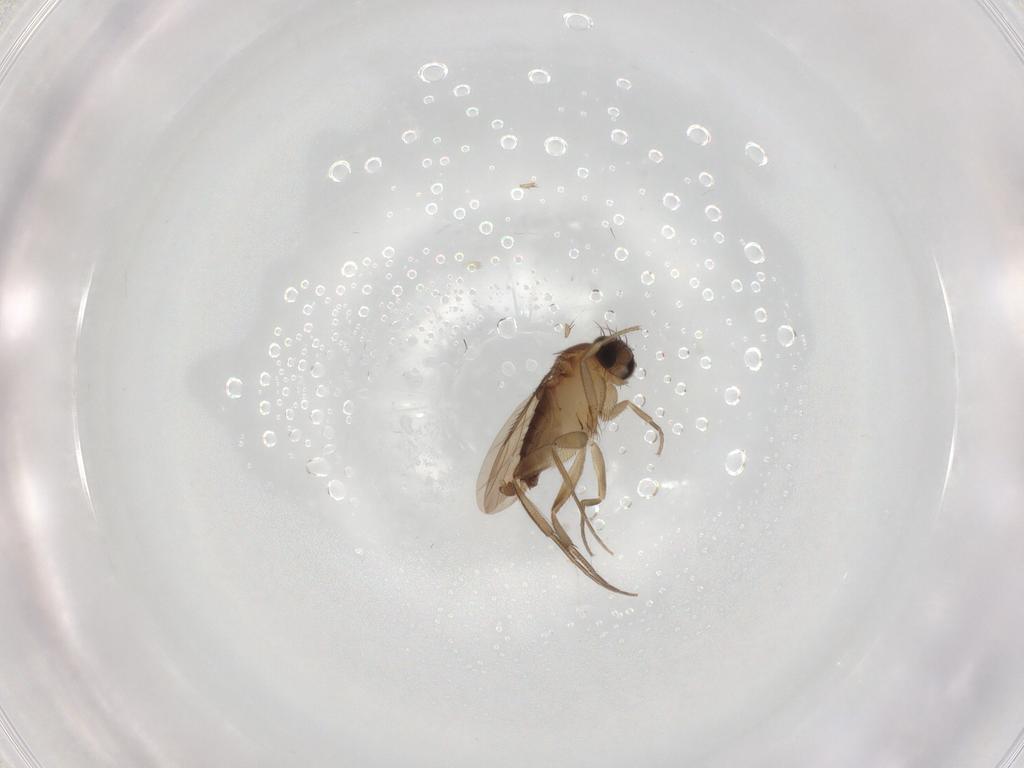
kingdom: Animalia
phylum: Arthropoda
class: Insecta
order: Diptera
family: Phoridae
